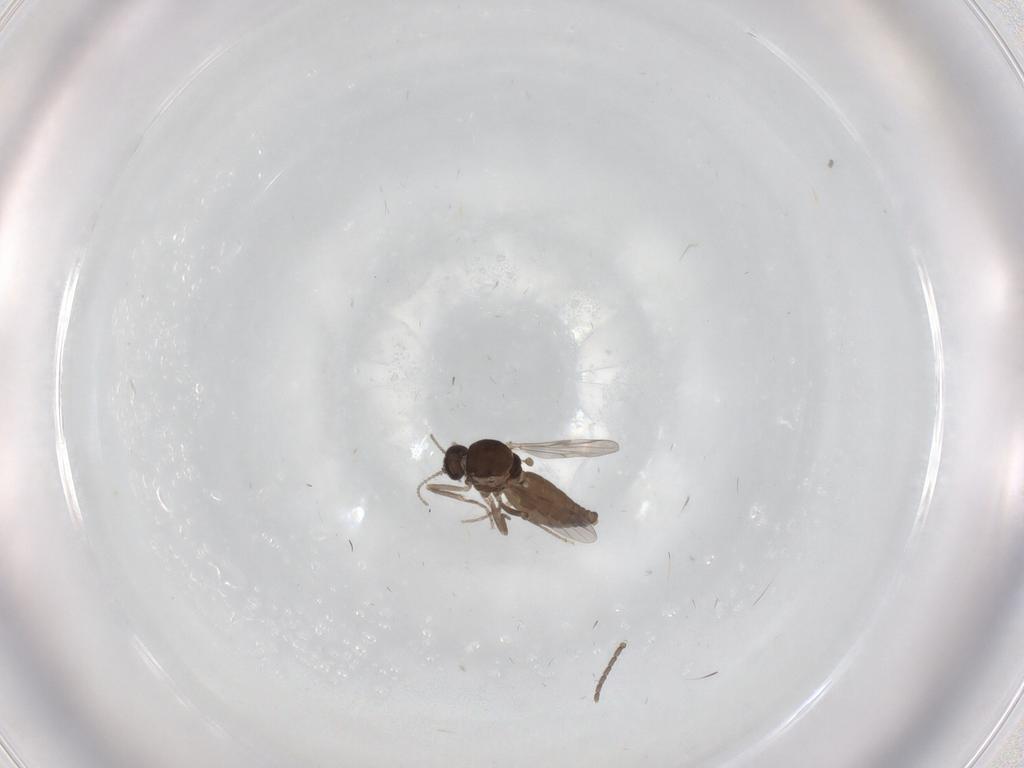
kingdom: Animalia
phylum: Arthropoda
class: Insecta
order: Diptera
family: Ceratopogonidae
